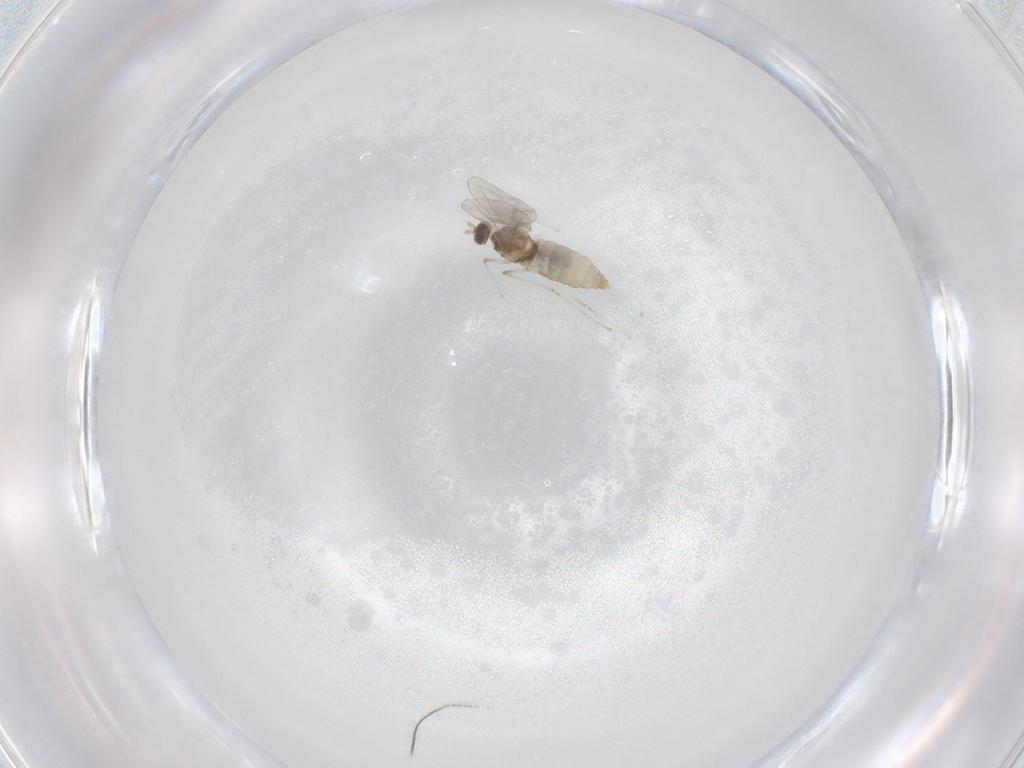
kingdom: Animalia
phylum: Arthropoda
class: Insecta
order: Diptera
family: Cecidomyiidae
